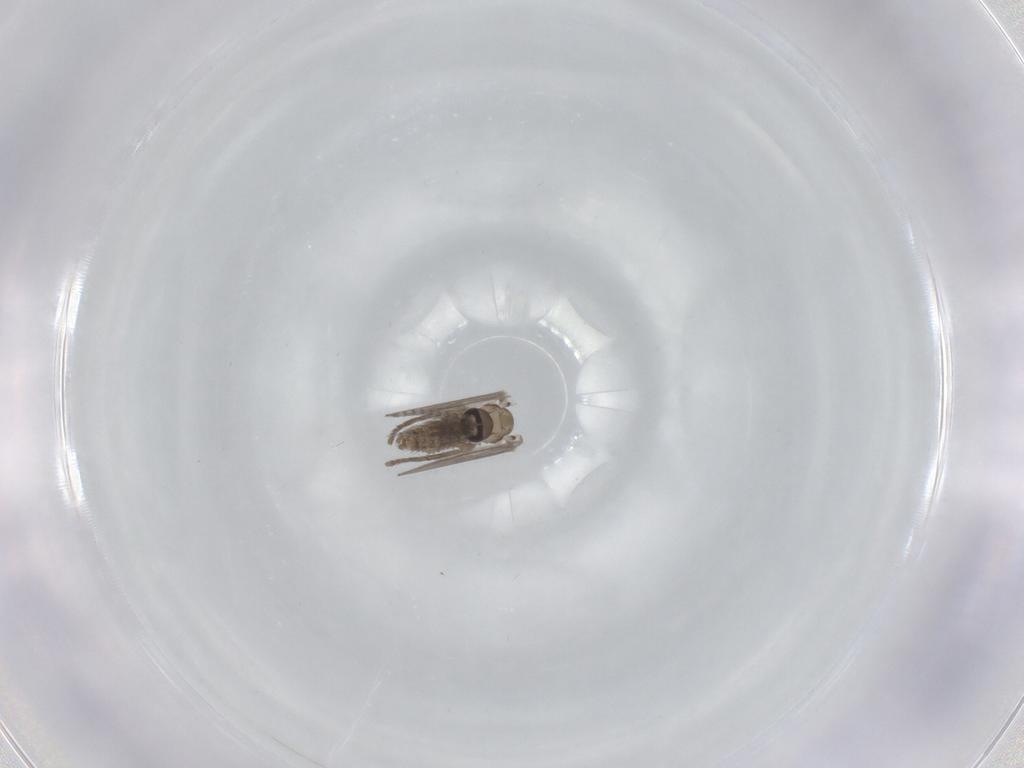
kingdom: Animalia
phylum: Arthropoda
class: Insecta
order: Diptera
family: Psychodidae
